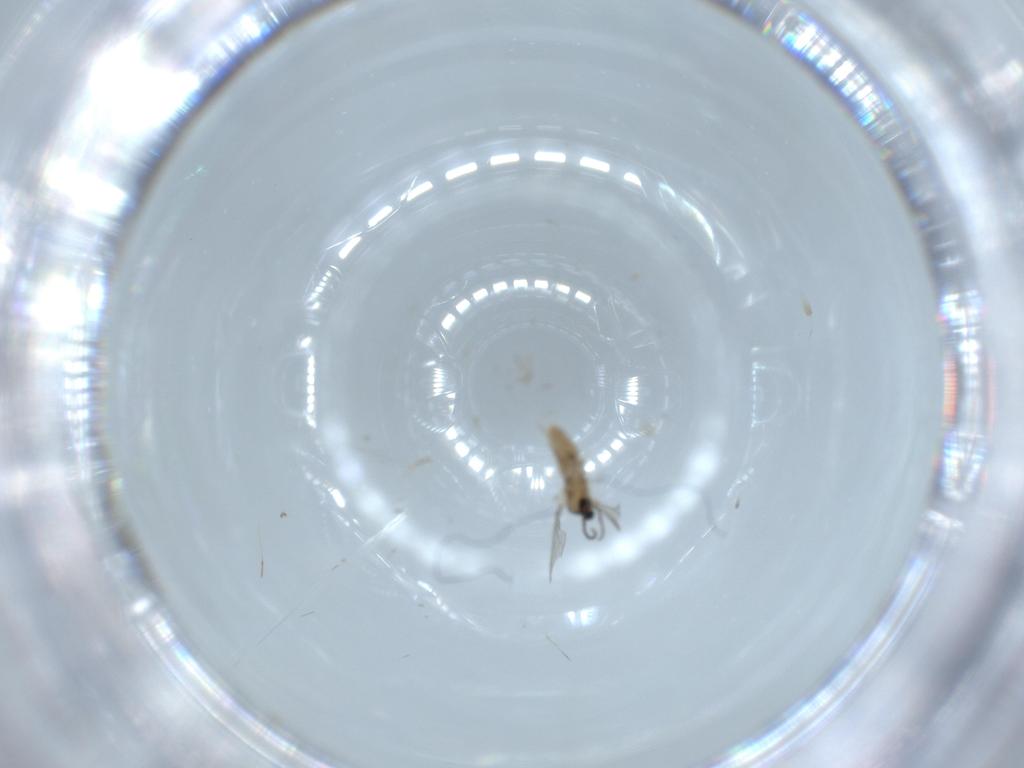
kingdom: Animalia
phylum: Arthropoda
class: Insecta
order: Diptera
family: Cecidomyiidae
